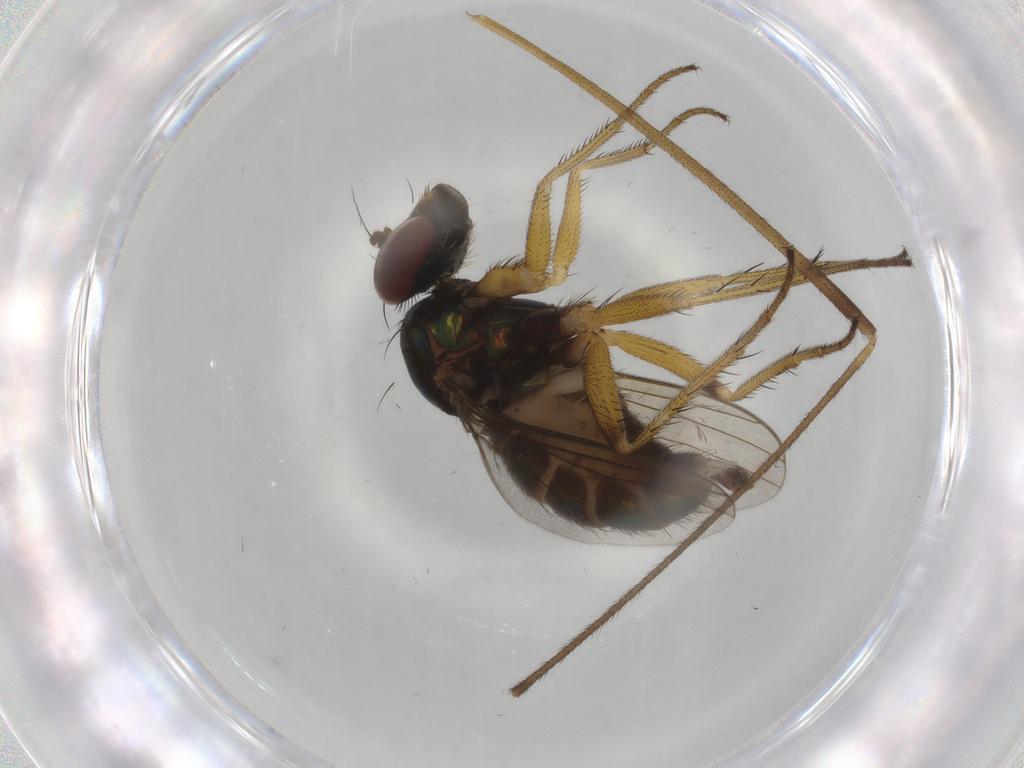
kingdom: Animalia
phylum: Arthropoda
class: Insecta
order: Diptera
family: Dolichopodidae
